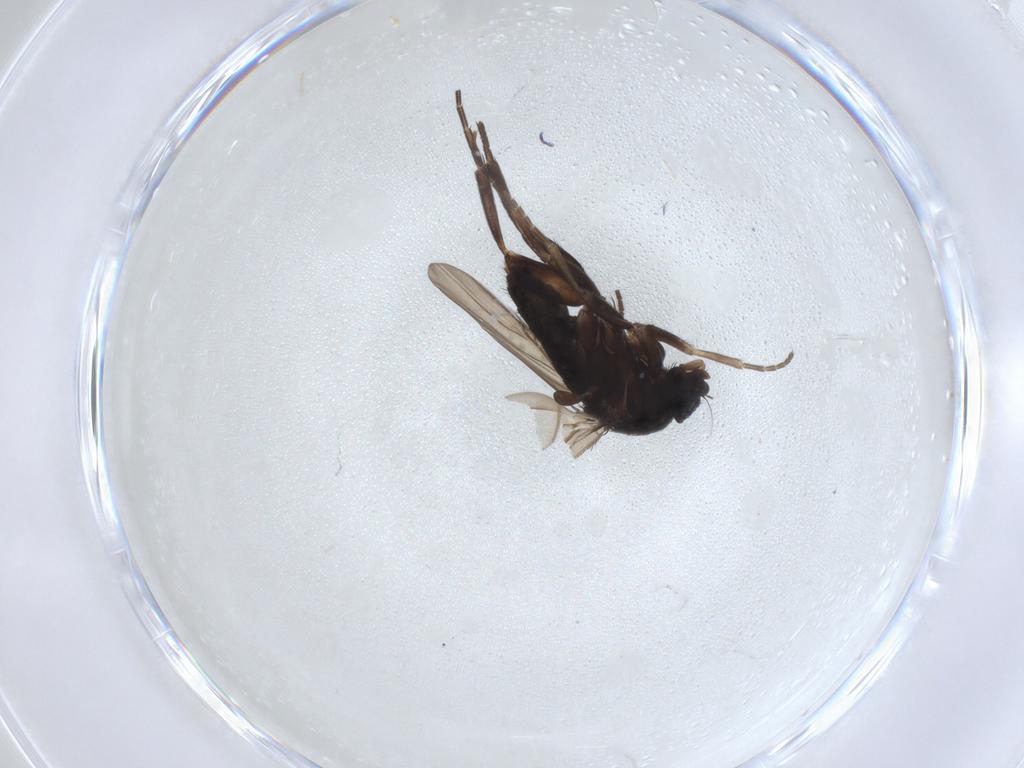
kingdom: Animalia
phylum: Arthropoda
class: Insecta
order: Diptera
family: Phoridae
